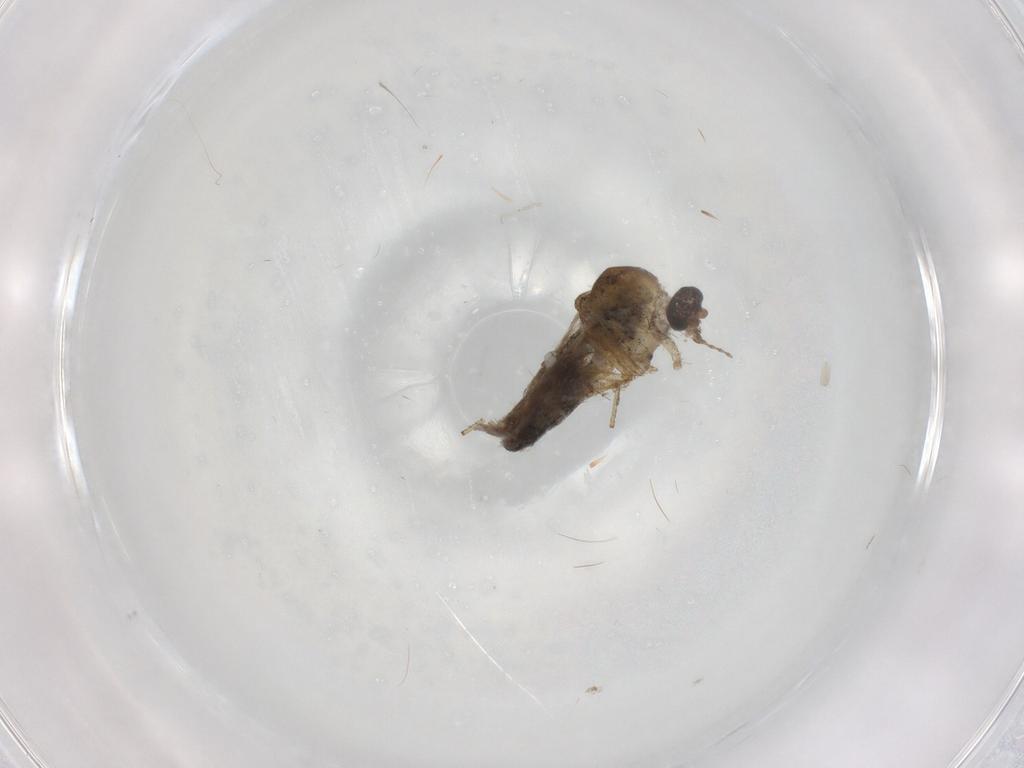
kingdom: Animalia
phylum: Arthropoda
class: Insecta
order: Diptera
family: Ceratopogonidae
